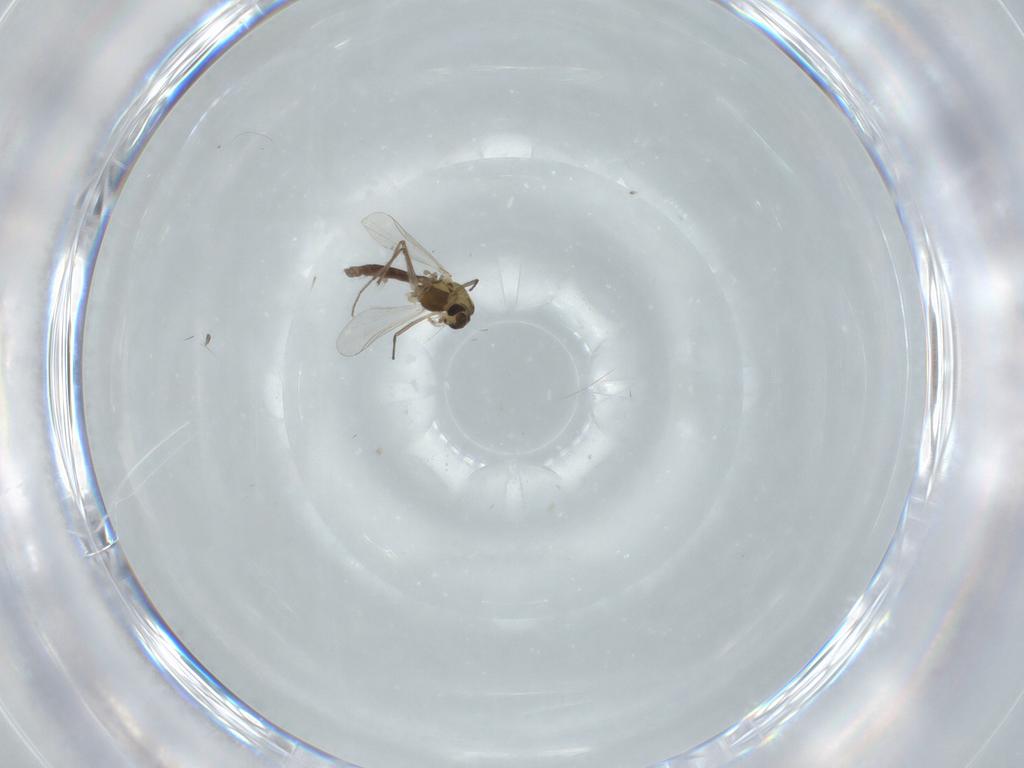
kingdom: Animalia
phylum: Arthropoda
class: Insecta
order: Diptera
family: Chironomidae
